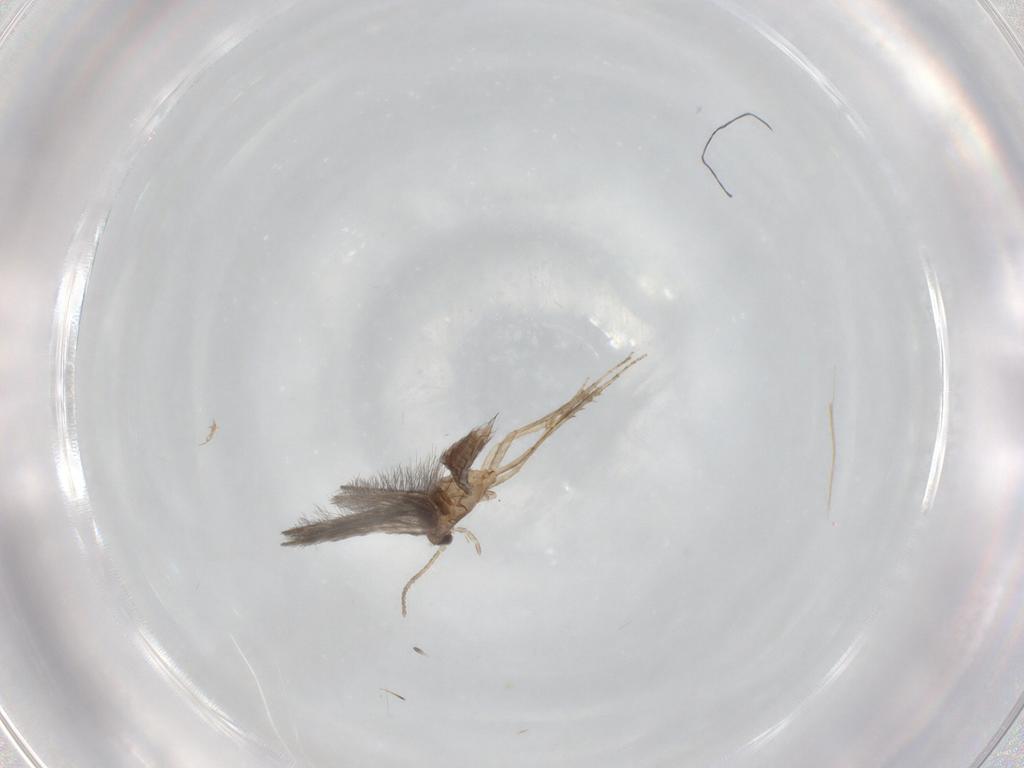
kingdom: Animalia
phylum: Arthropoda
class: Insecta
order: Trichoptera
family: Hydroptilidae
